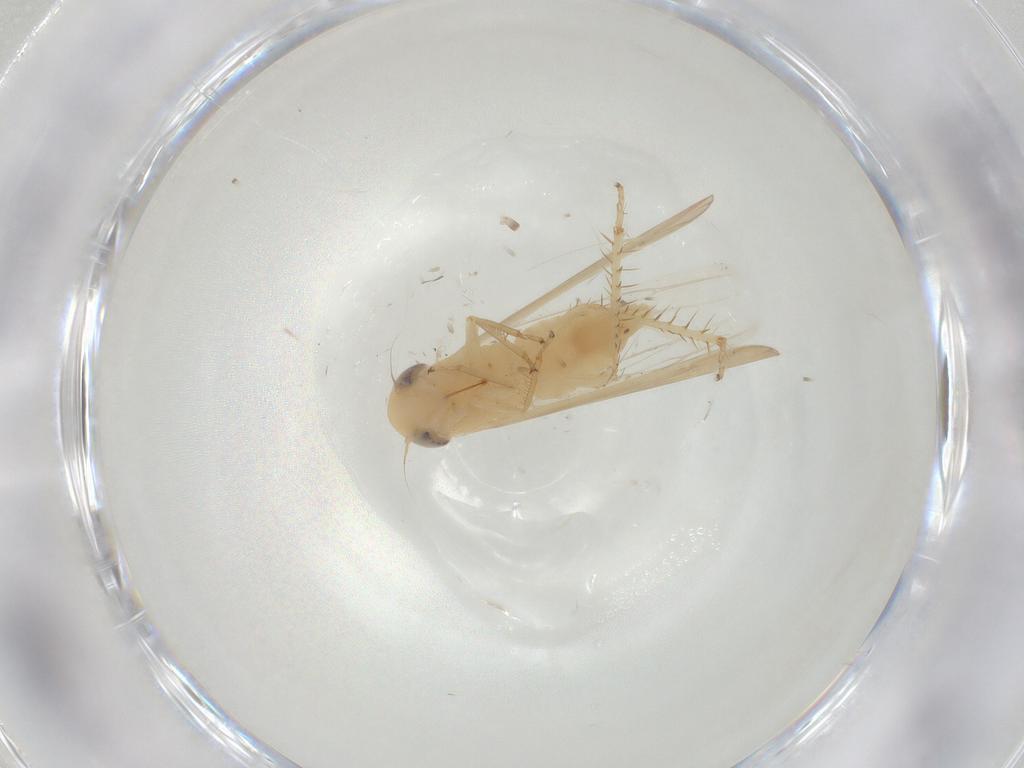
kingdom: Animalia
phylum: Arthropoda
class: Insecta
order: Hemiptera
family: Cicadellidae
